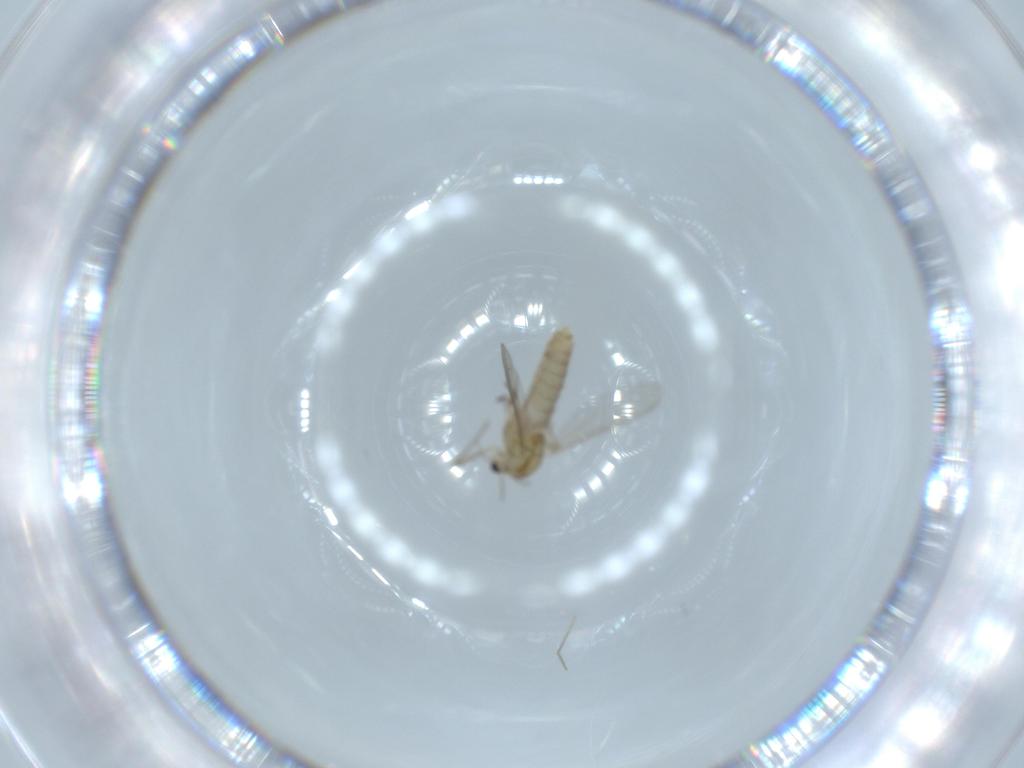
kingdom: Animalia
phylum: Arthropoda
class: Insecta
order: Diptera
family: Chironomidae
